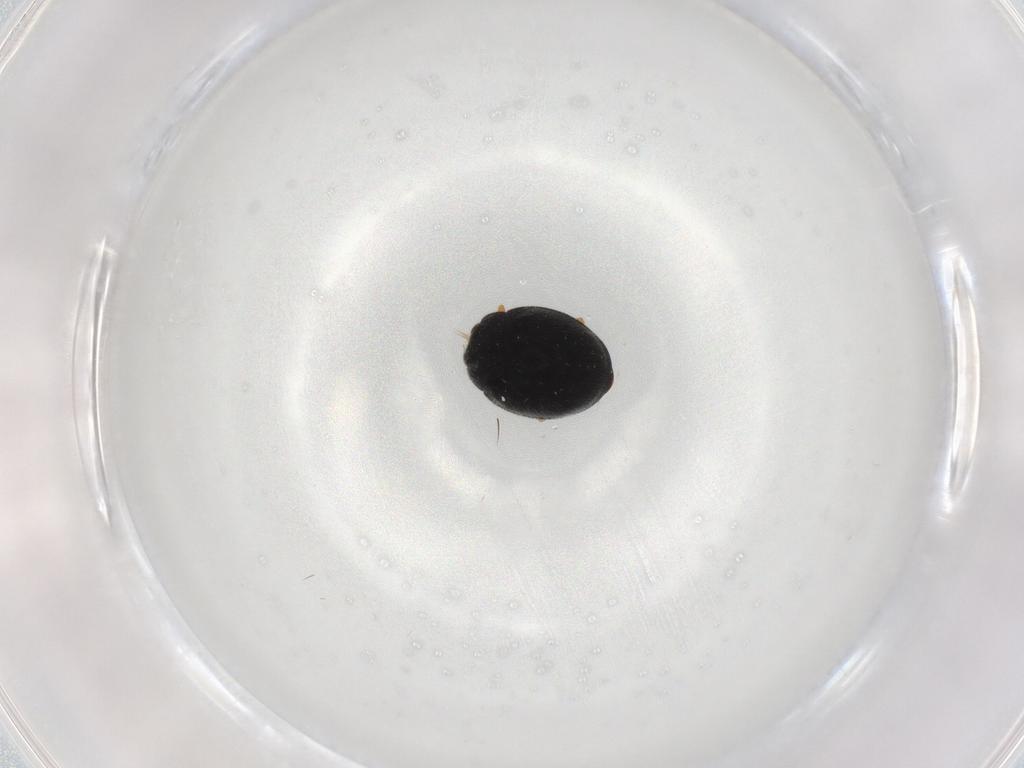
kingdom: Animalia
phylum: Arthropoda
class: Insecta
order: Coleoptera
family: Coccinellidae
